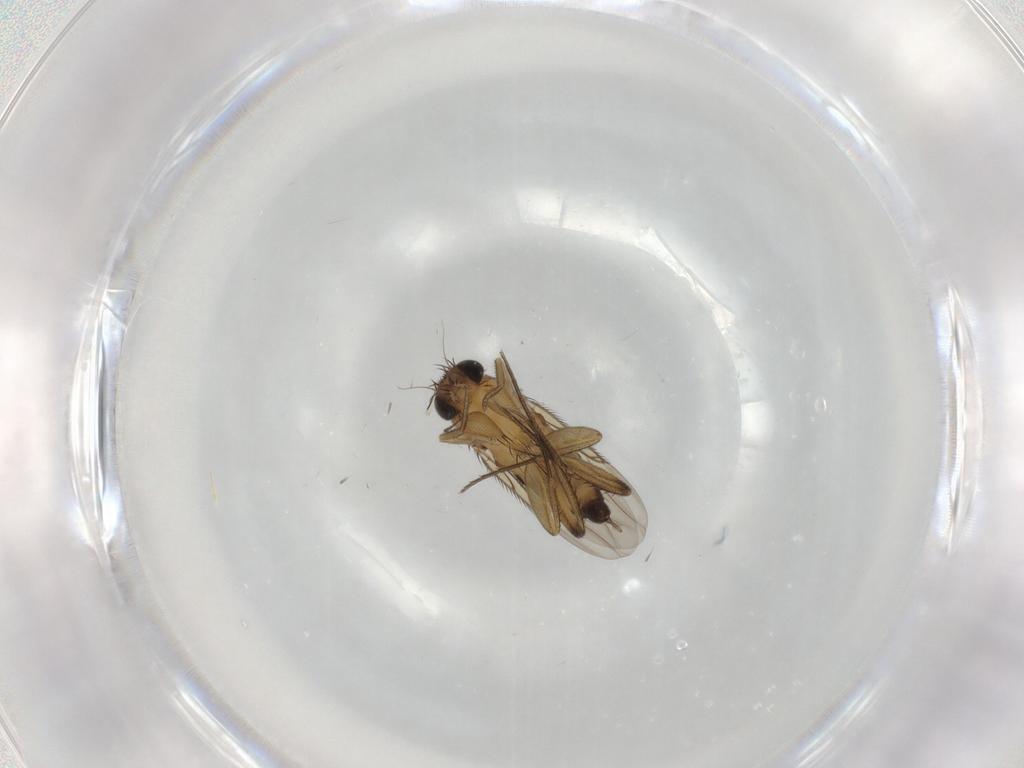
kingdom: Animalia
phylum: Arthropoda
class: Insecta
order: Diptera
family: Phoridae
